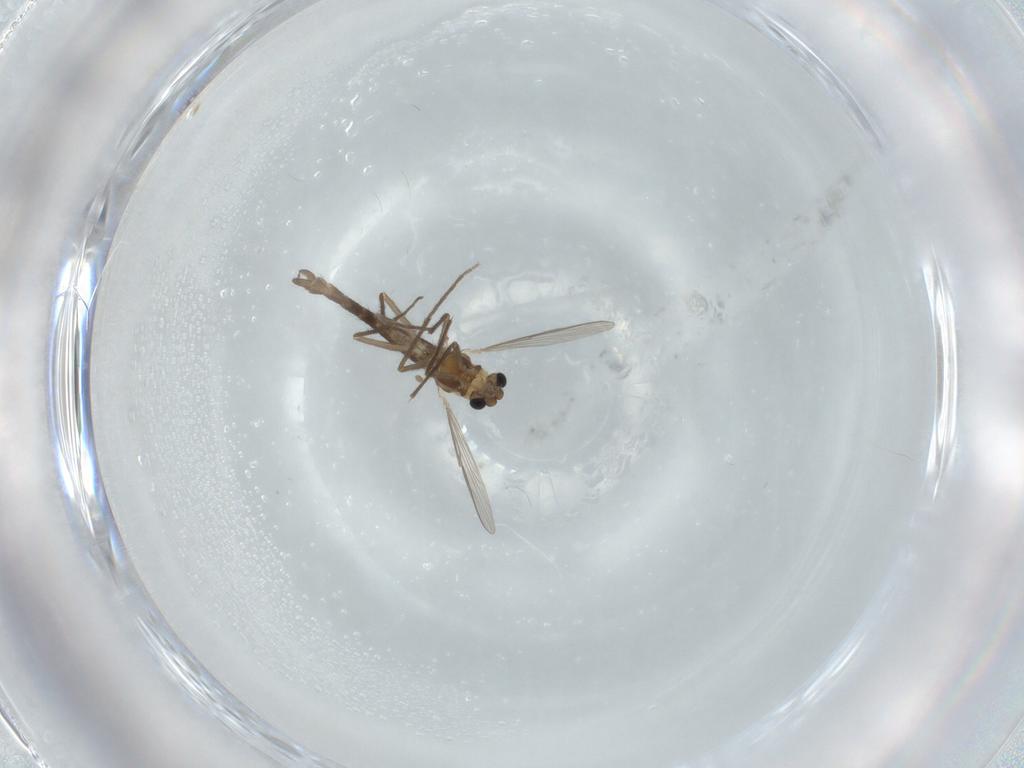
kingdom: Animalia
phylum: Arthropoda
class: Insecta
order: Diptera
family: Chironomidae
